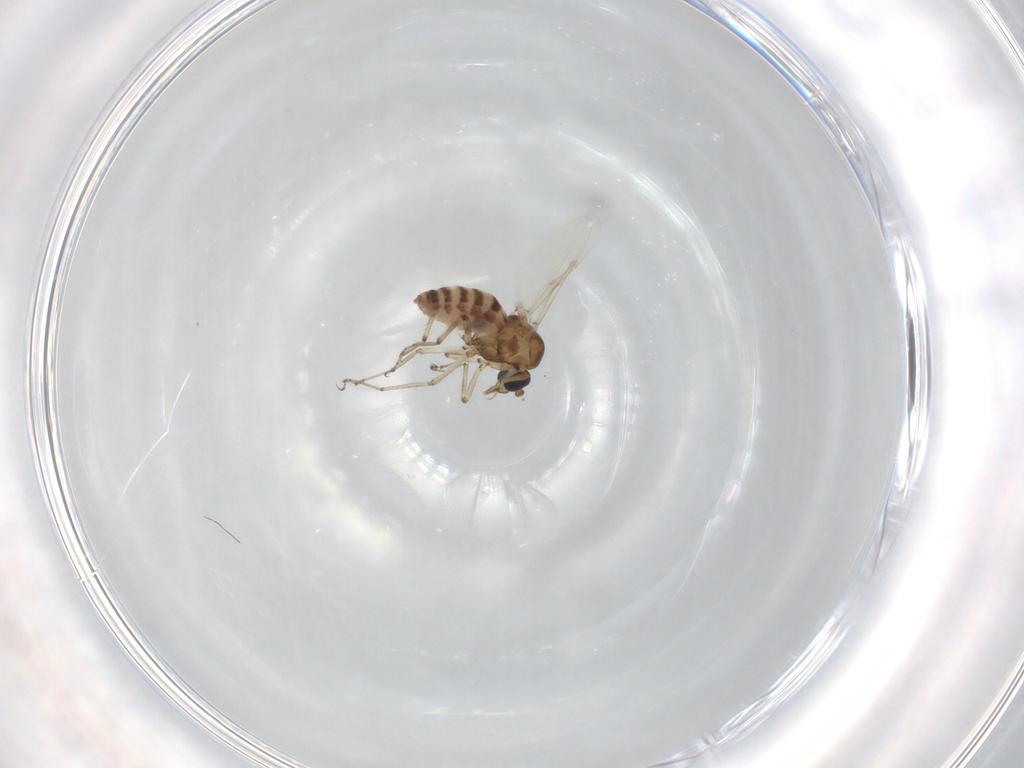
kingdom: Animalia
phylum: Arthropoda
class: Insecta
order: Diptera
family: Ceratopogonidae
